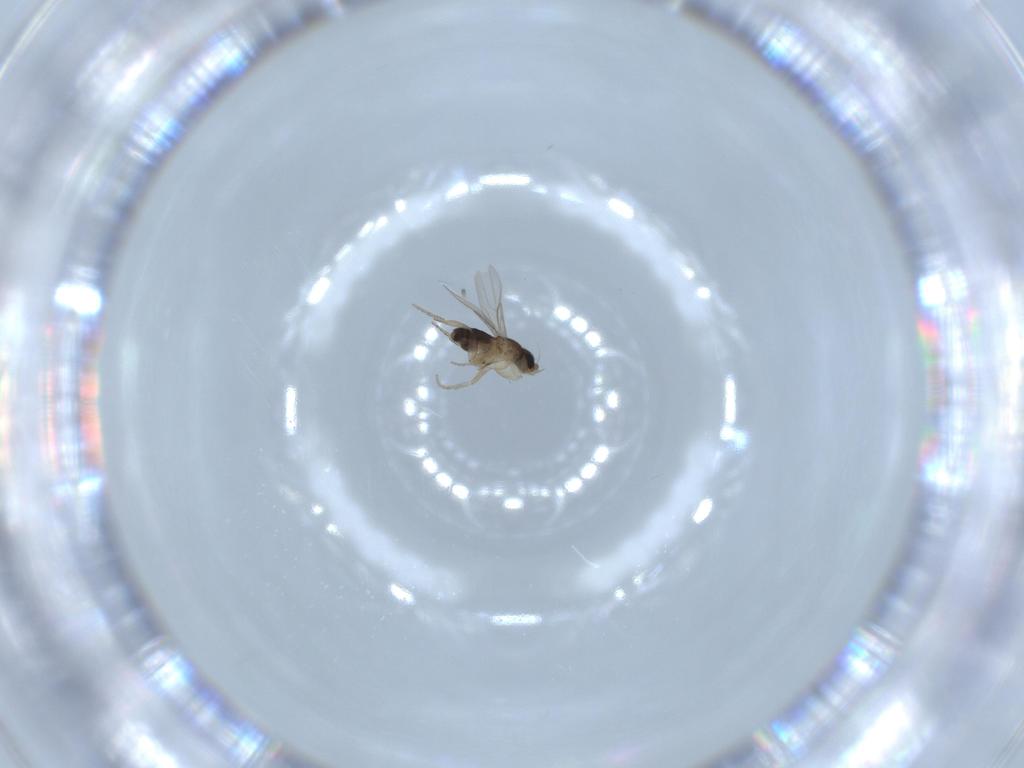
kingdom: Animalia
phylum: Arthropoda
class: Insecta
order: Diptera
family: Phoridae
